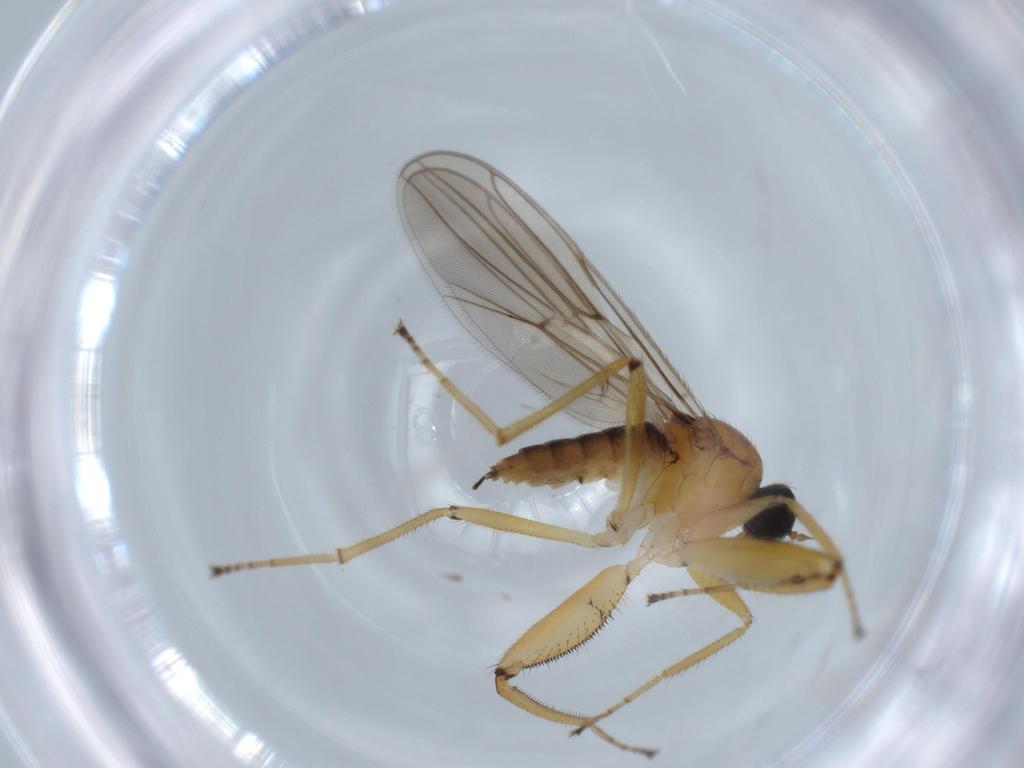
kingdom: Animalia
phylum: Arthropoda
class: Insecta
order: Diptera
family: Hybotidae
